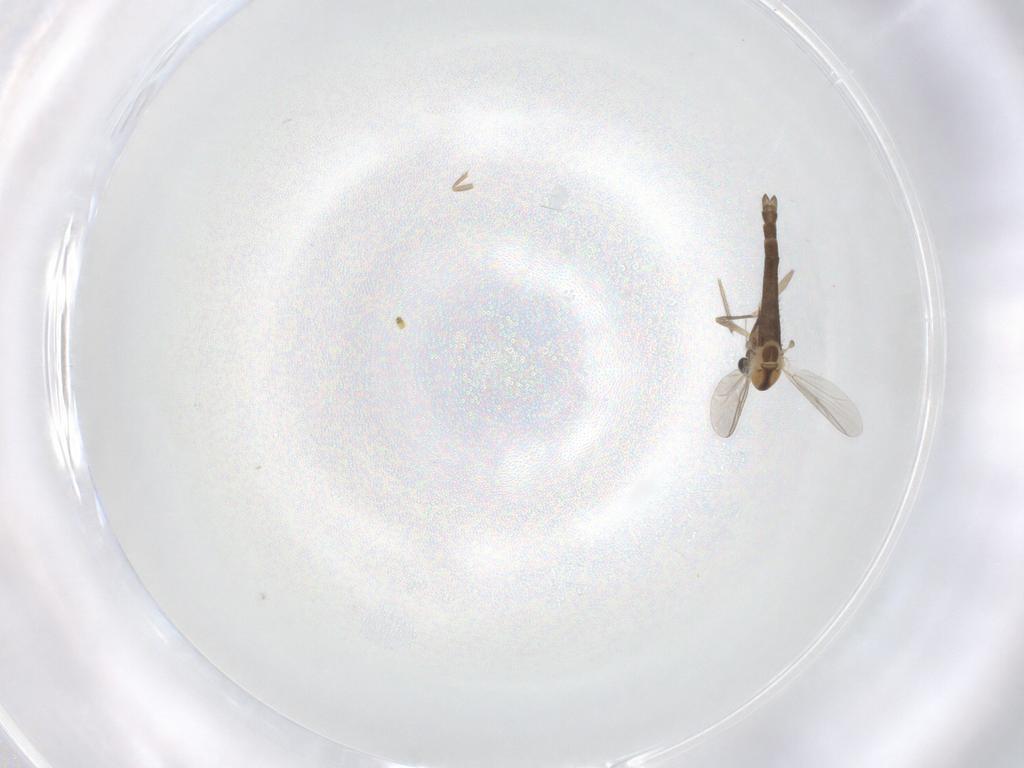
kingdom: Animalia
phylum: Arthropoda
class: Insecta
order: Diptera
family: Chironomidae
